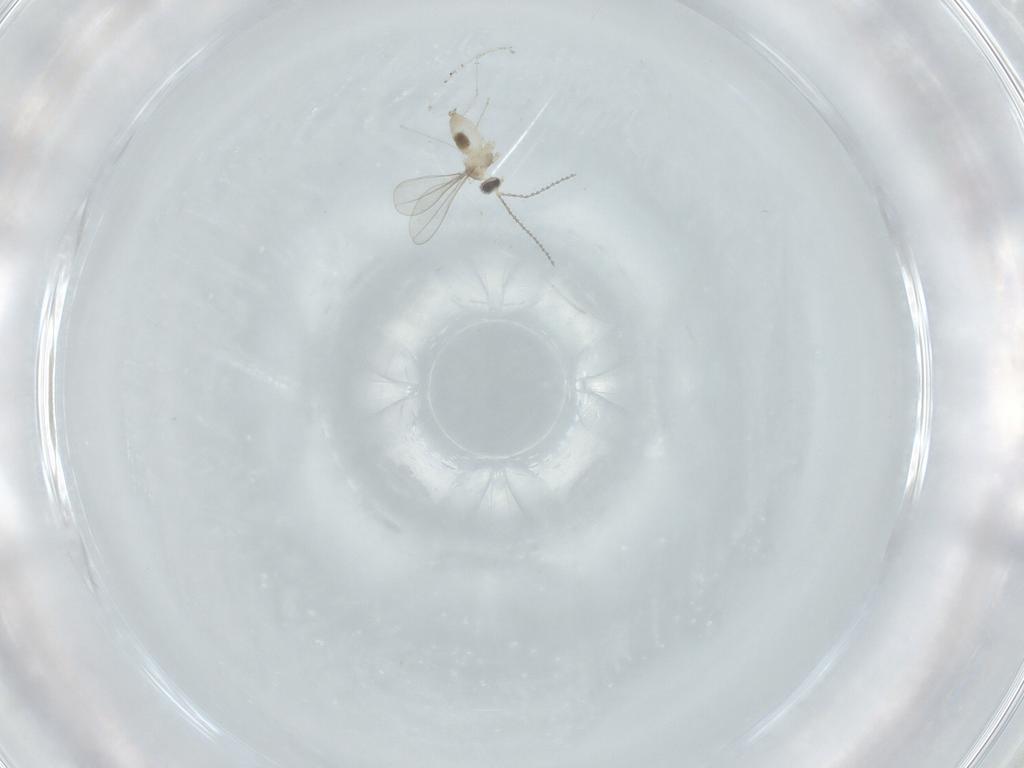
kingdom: Animalia
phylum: Arthropoda
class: Insecta
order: Diptera
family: Cecidomyiidae
